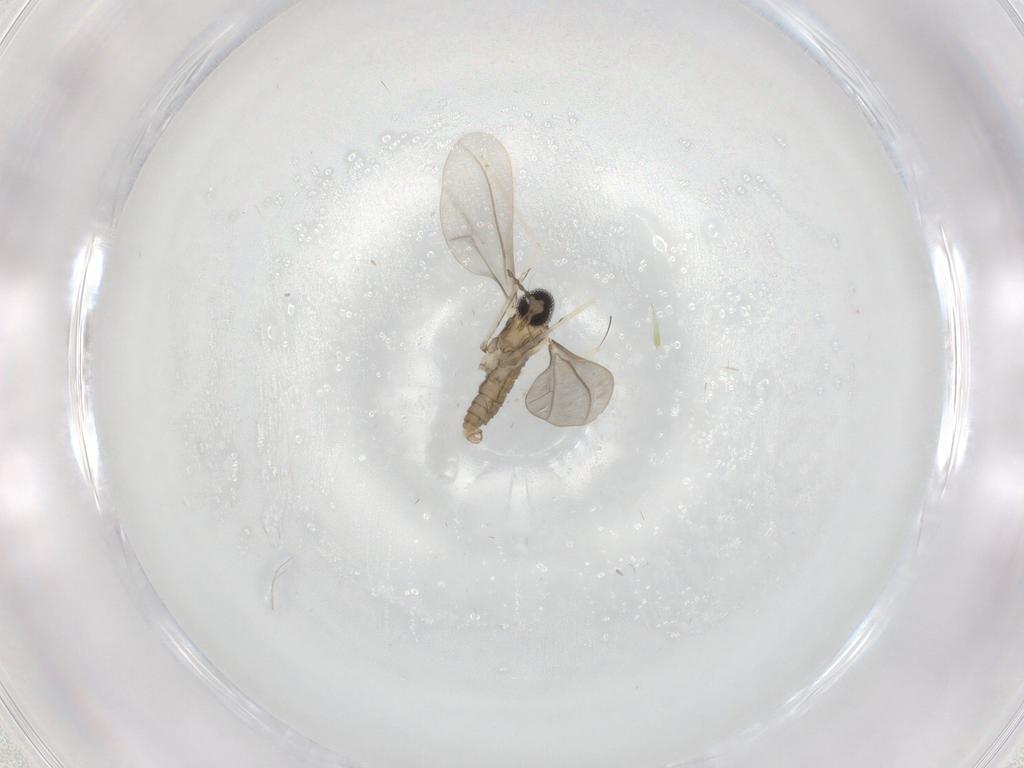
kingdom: Animalia
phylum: Arthropoda
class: Insecta
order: Diptera
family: Cecidomyiidae
